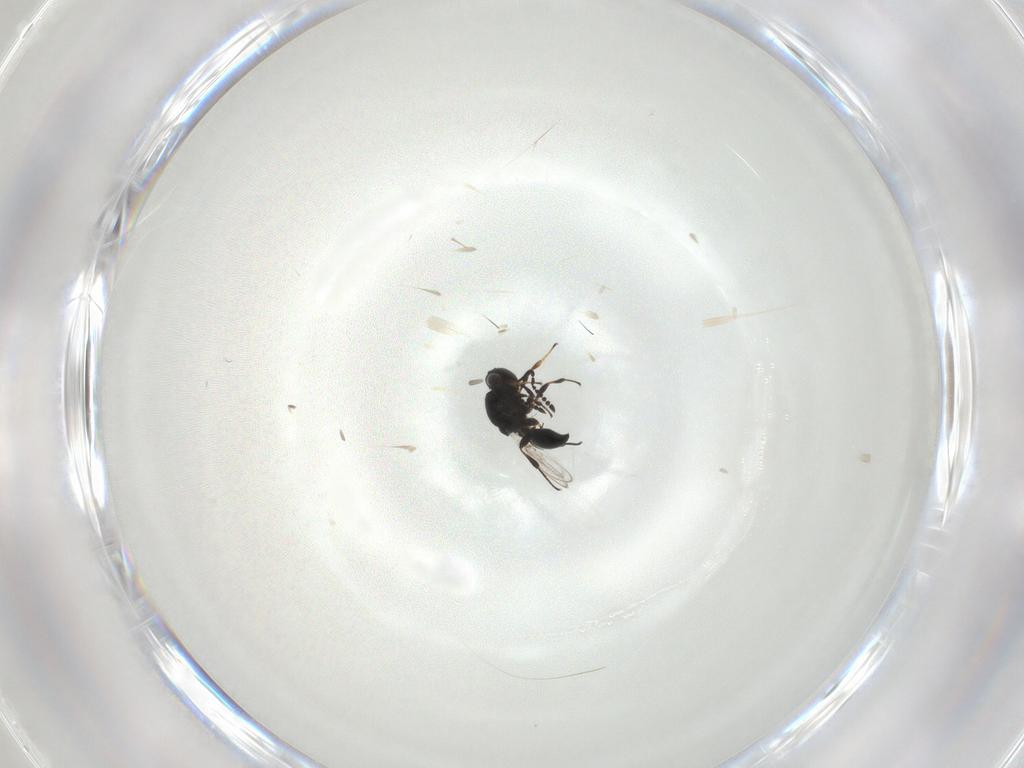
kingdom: Animalia
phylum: Arthropoda
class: Insecta
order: Hymenoptera
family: Platygastridae
